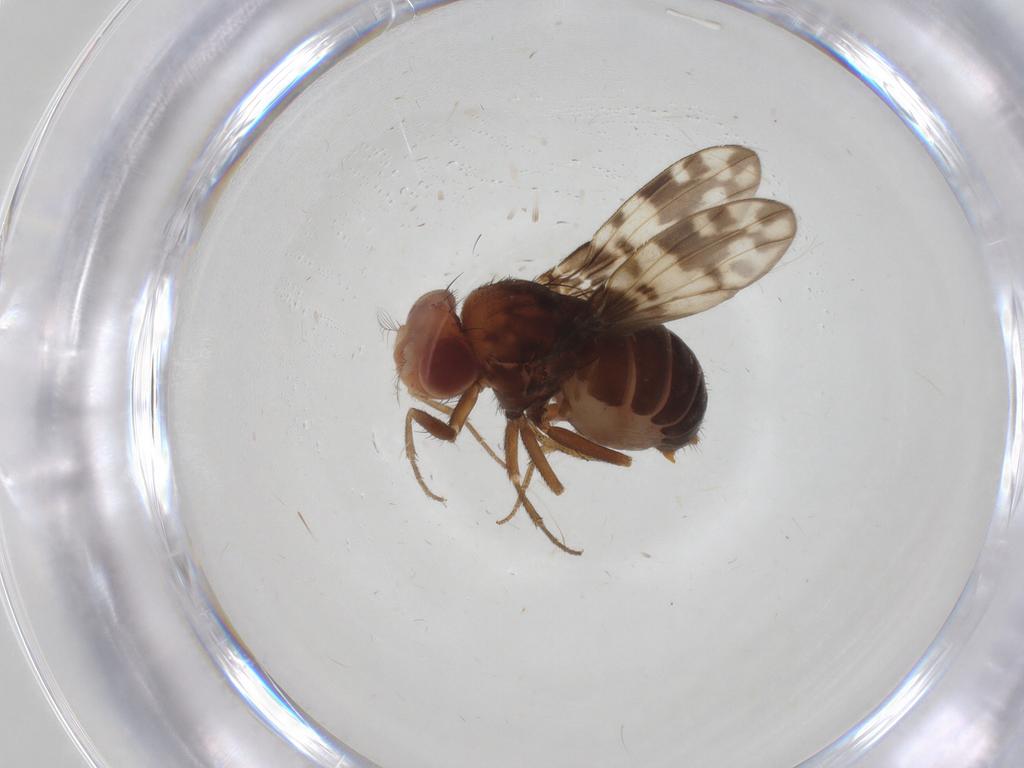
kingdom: Animalia
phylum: Arthropoda
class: Insecta
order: Diptera
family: Drosophilidae
